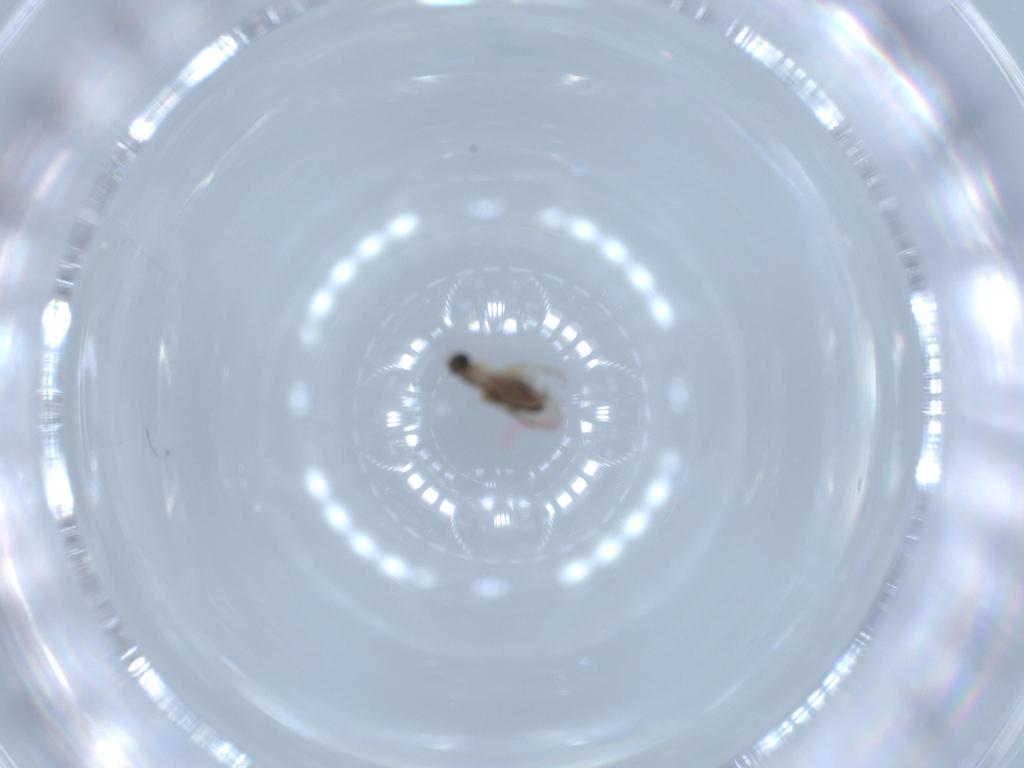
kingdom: Animalia
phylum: Arthropoda
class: Insecta
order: Diptera
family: Phoridae
